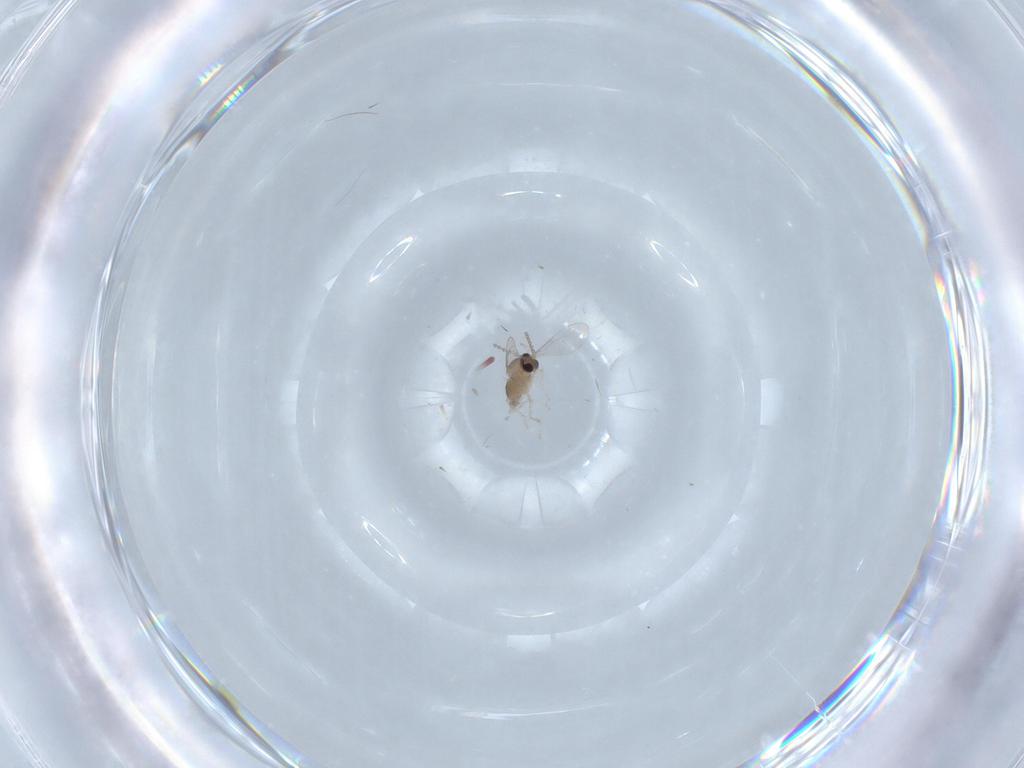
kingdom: Animalia
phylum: Arthropoda
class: Insecta
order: Diptera
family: Cecidomyiidae
